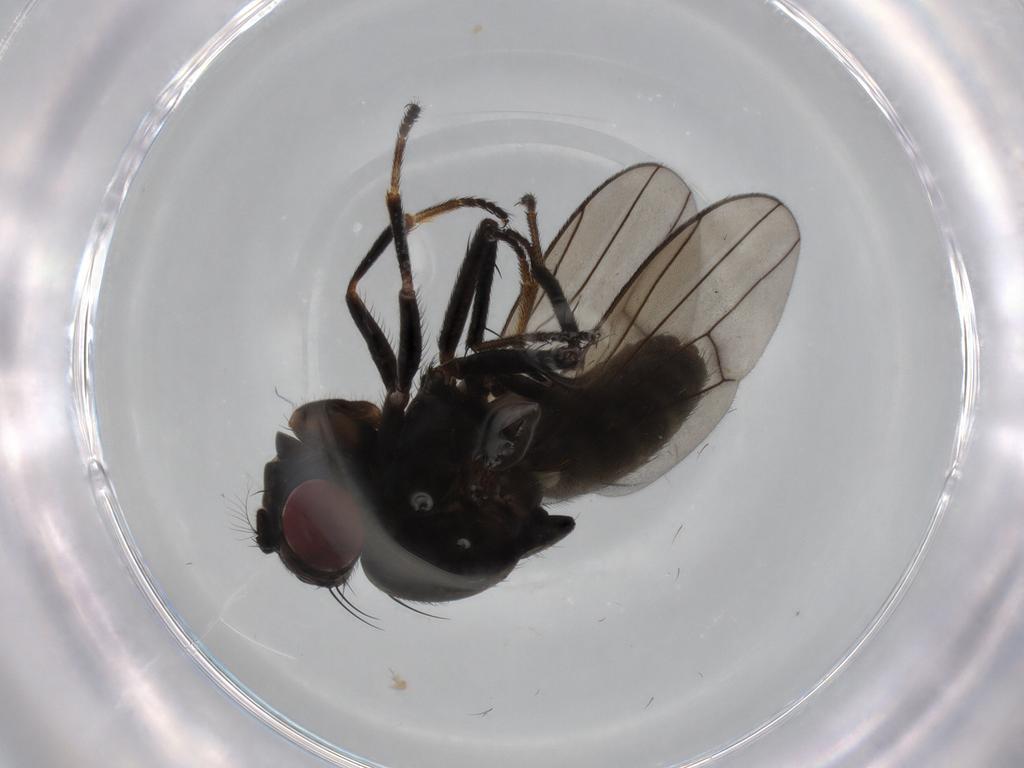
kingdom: Animalia
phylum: Arthropoda
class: Insecta
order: Diptera
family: Ephydridae
